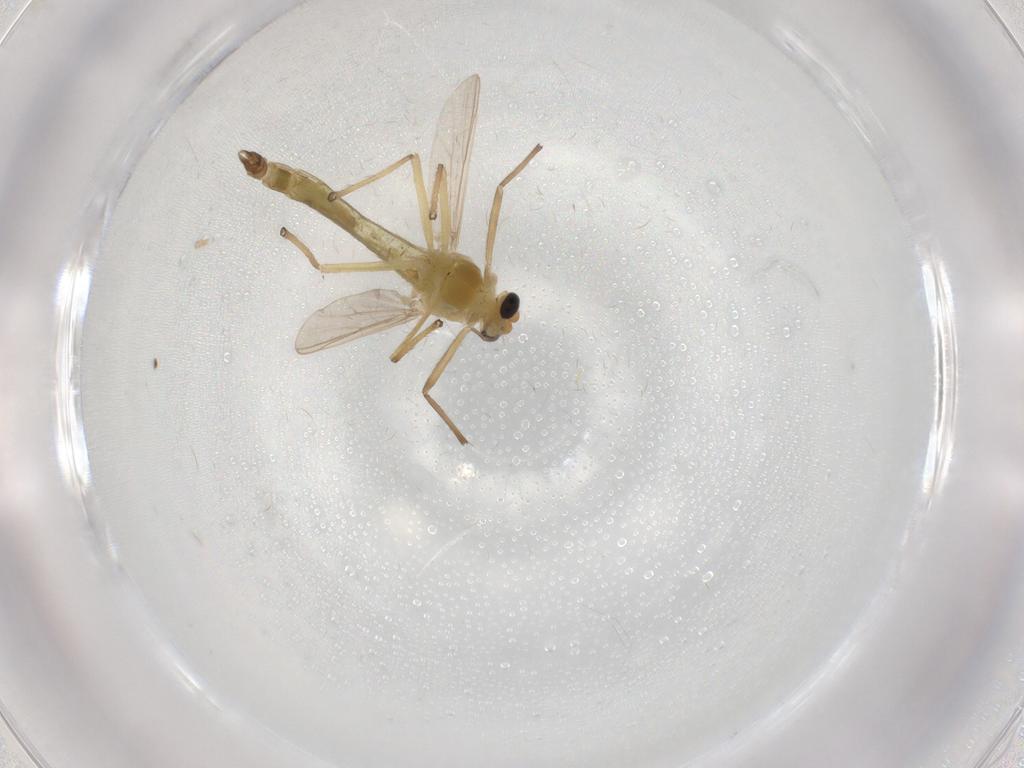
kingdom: Animalia
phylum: Arthropoda
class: Insecta
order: Diptera
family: Chironomidae
